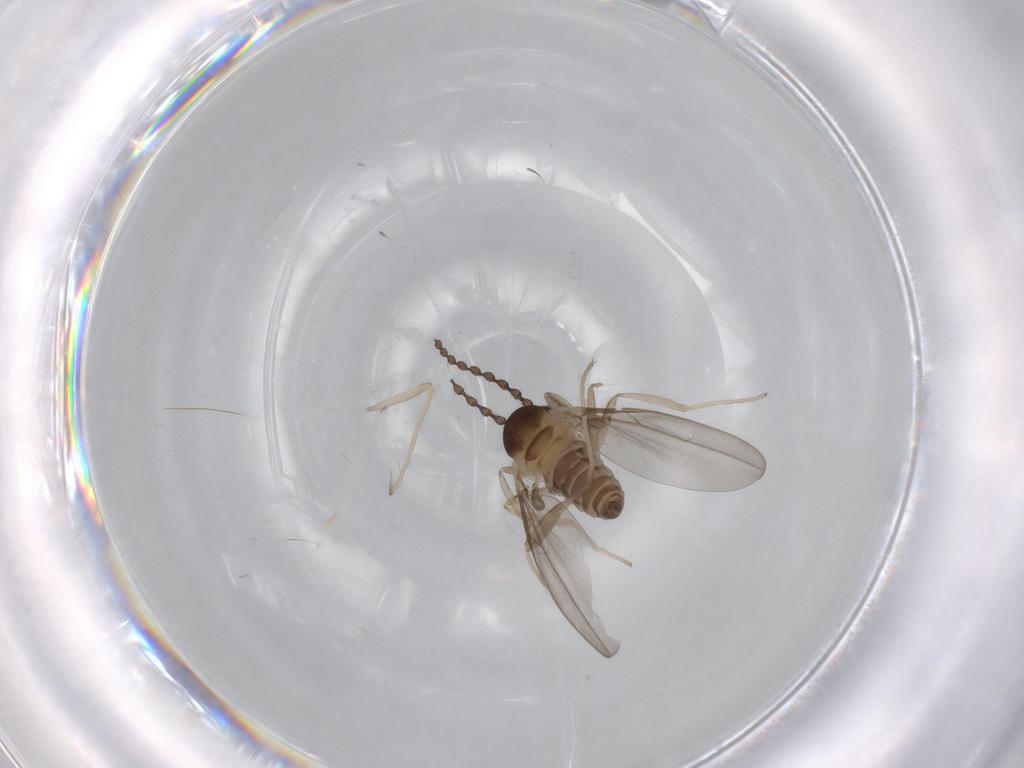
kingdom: Animalia
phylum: Arthropoda
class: Insecta
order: Diptera
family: Cecidomyiidae
